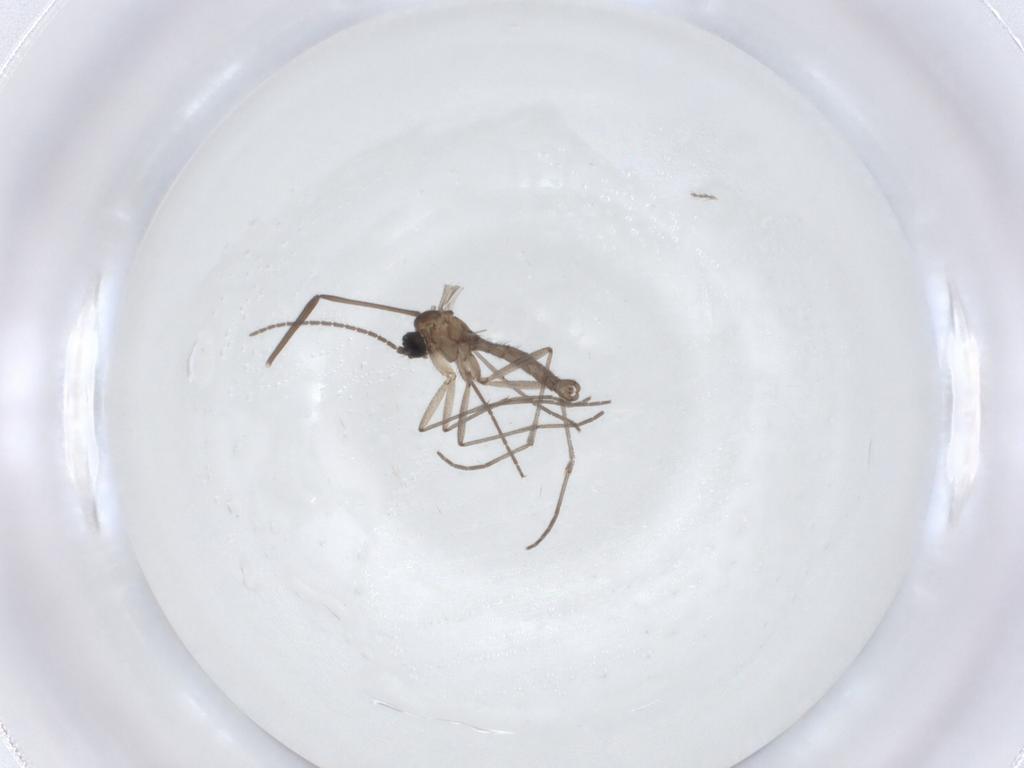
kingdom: Animalia
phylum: Arthropoda
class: Insecta
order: Diptera
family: Sciaridae
